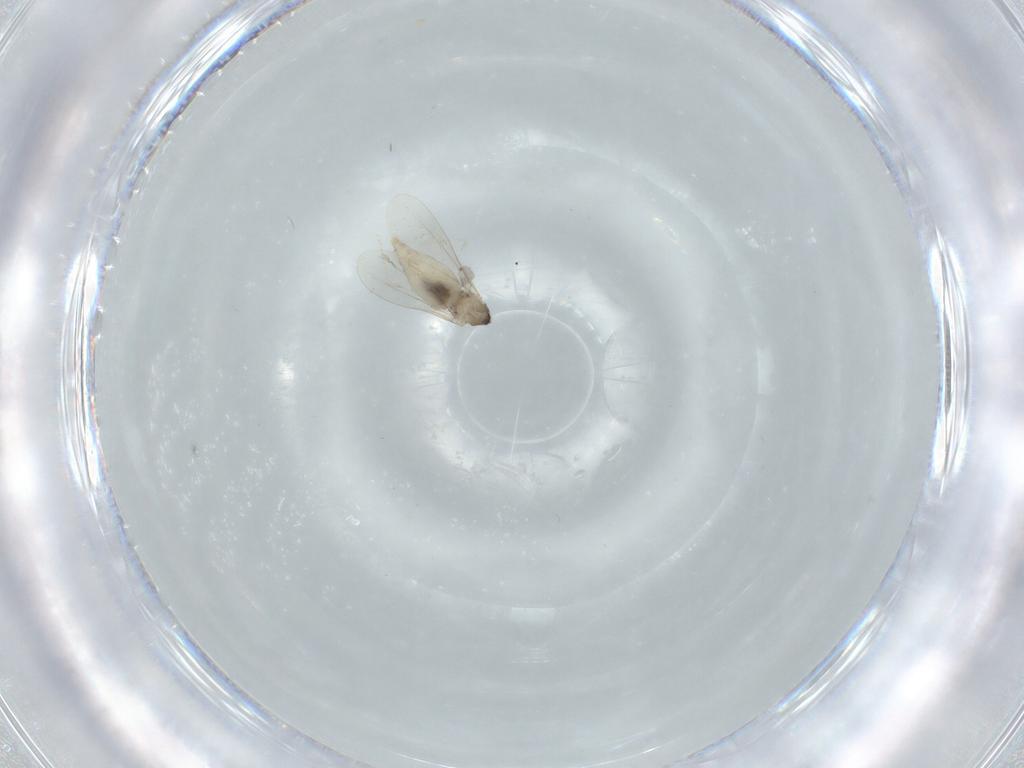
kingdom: Animalia
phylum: Arthropoda
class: Insecta
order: Diptera
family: Cecidomyiidae
